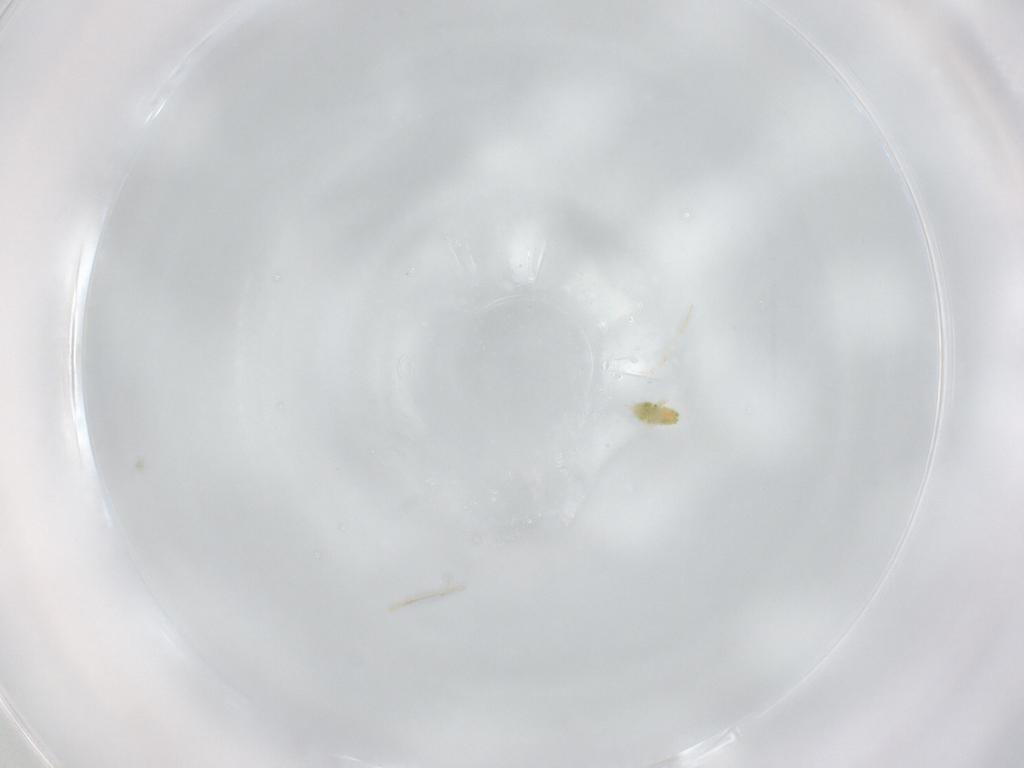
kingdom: Animalia
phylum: Arthropoda
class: Arachnida
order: Trombidiformes
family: Eupodidae
